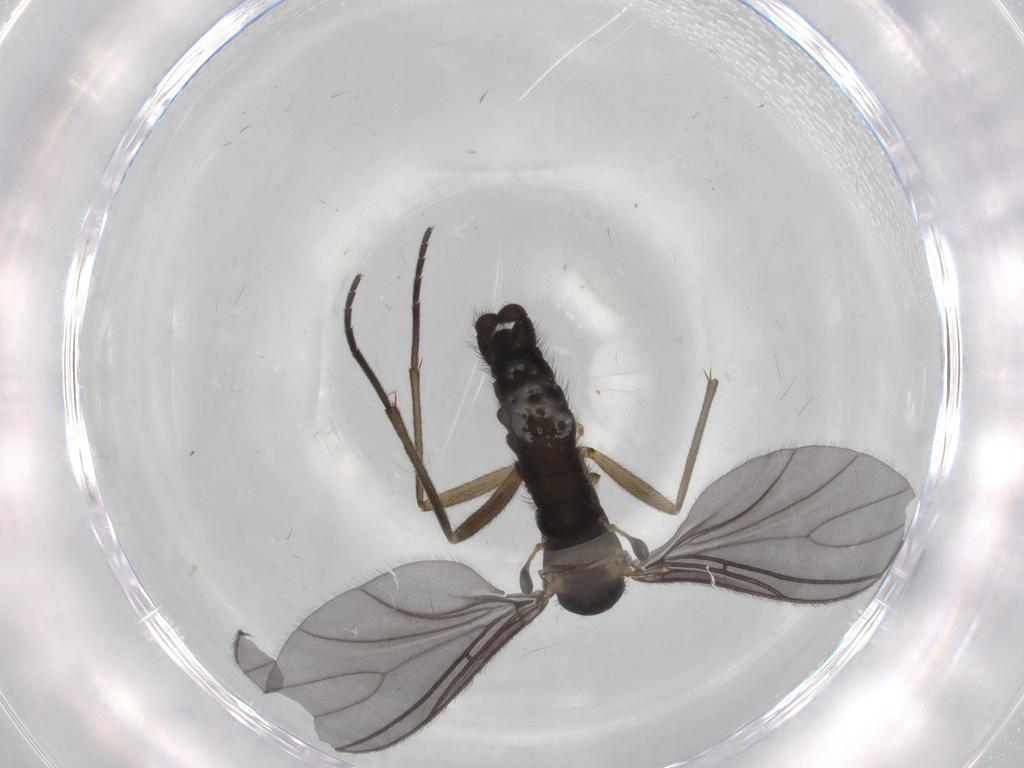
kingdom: Animalia
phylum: Arthropoda
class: Insecta
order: Diptera
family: Sciaridae
